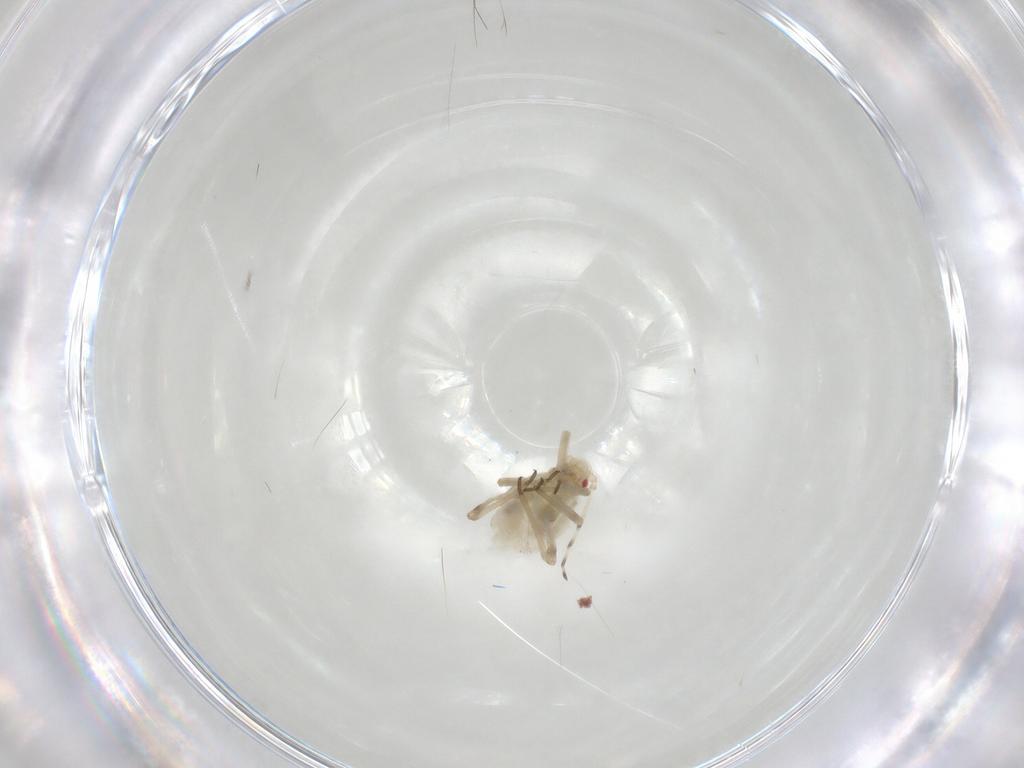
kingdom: Animalia
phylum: Arthropoda
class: Insecta
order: Hemiptera
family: Aphididae
